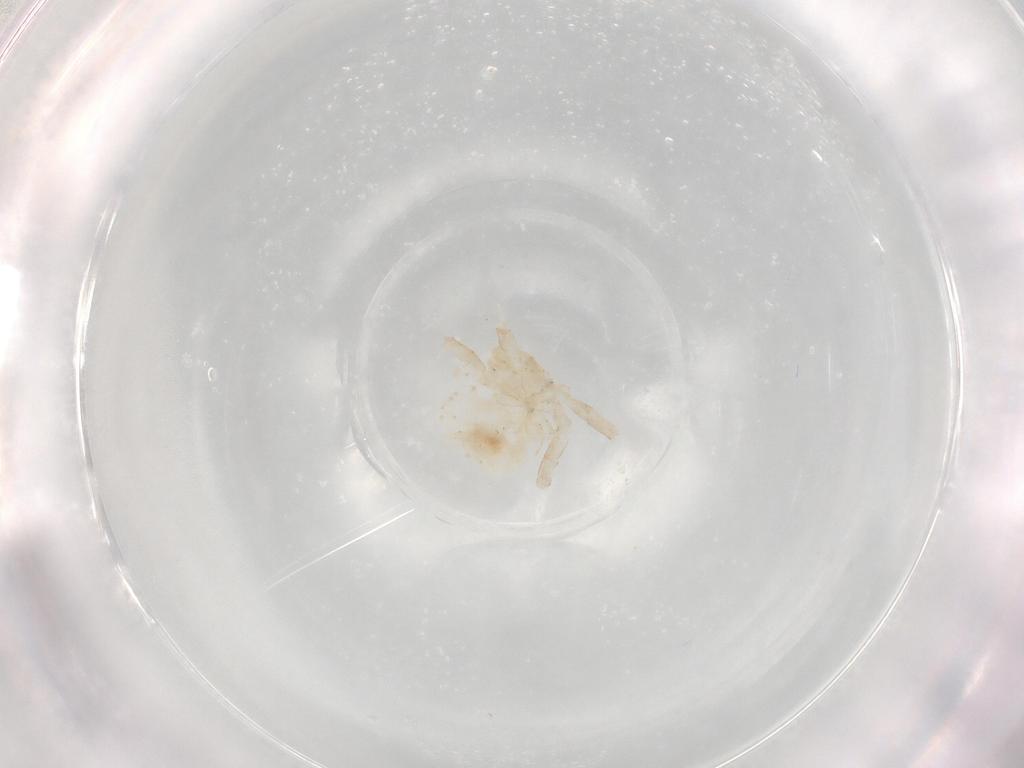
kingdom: Animalia
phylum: Arthropoda
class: Arachnida
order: Trombidiformes
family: Anystidae
